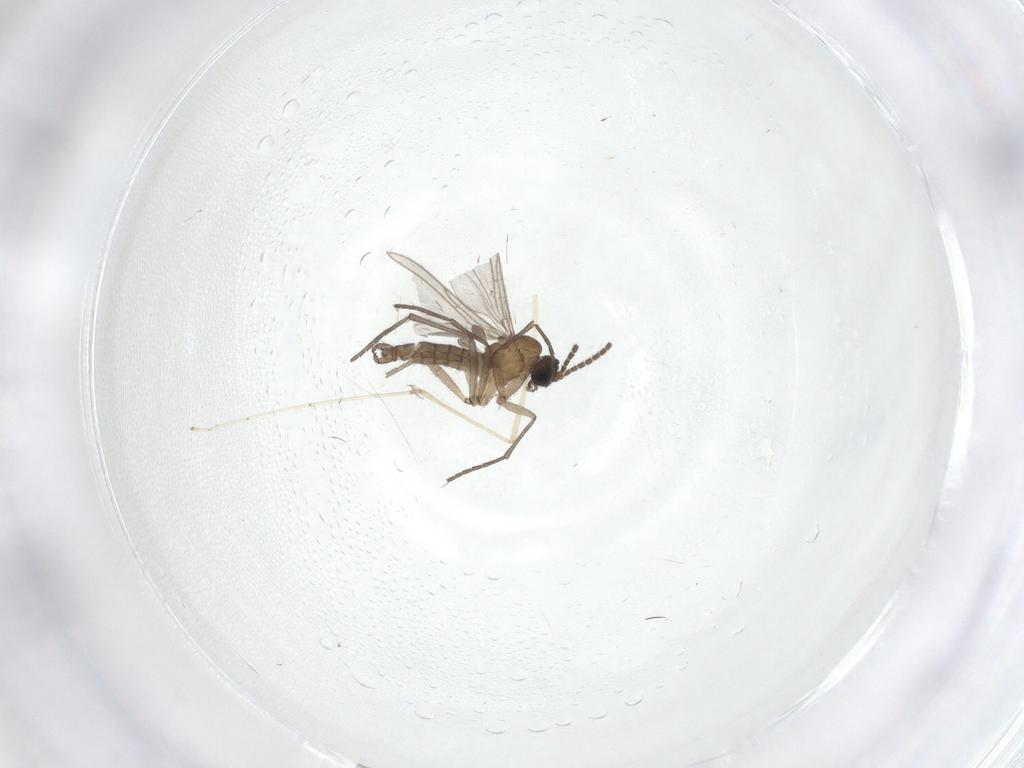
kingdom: Animalia
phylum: Arthropoda
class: Insecta
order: Diptera
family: Sciaridae
